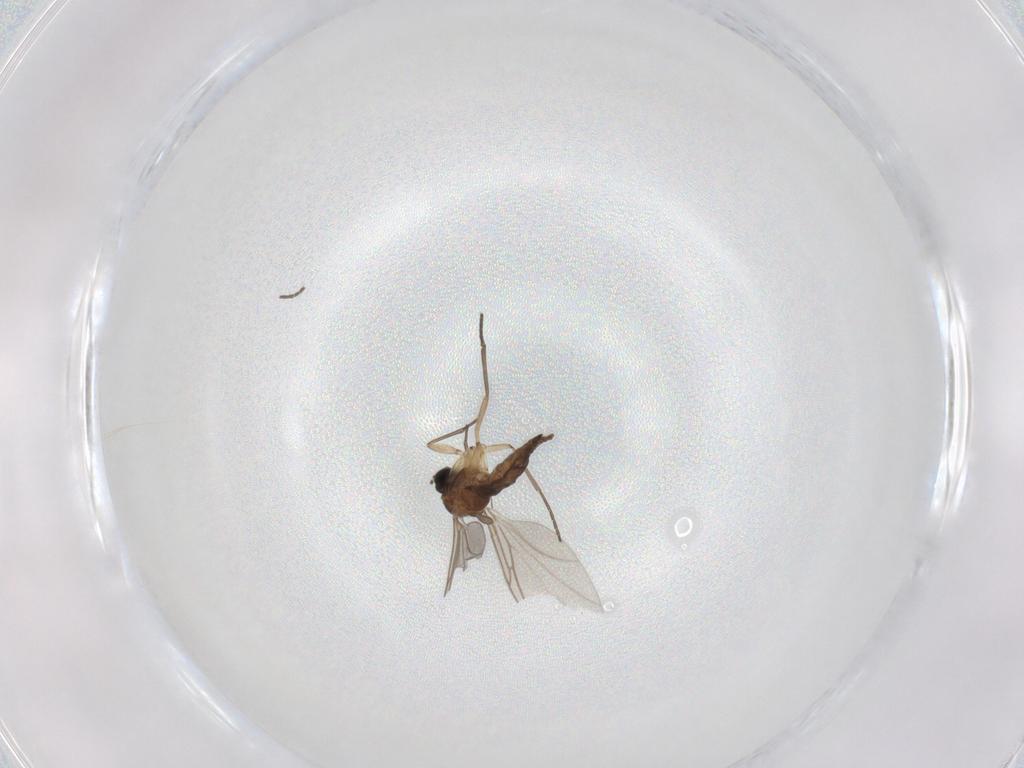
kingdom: Animalia
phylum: Arthropoda
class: Insecta
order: Diptera
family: Sciaridae
